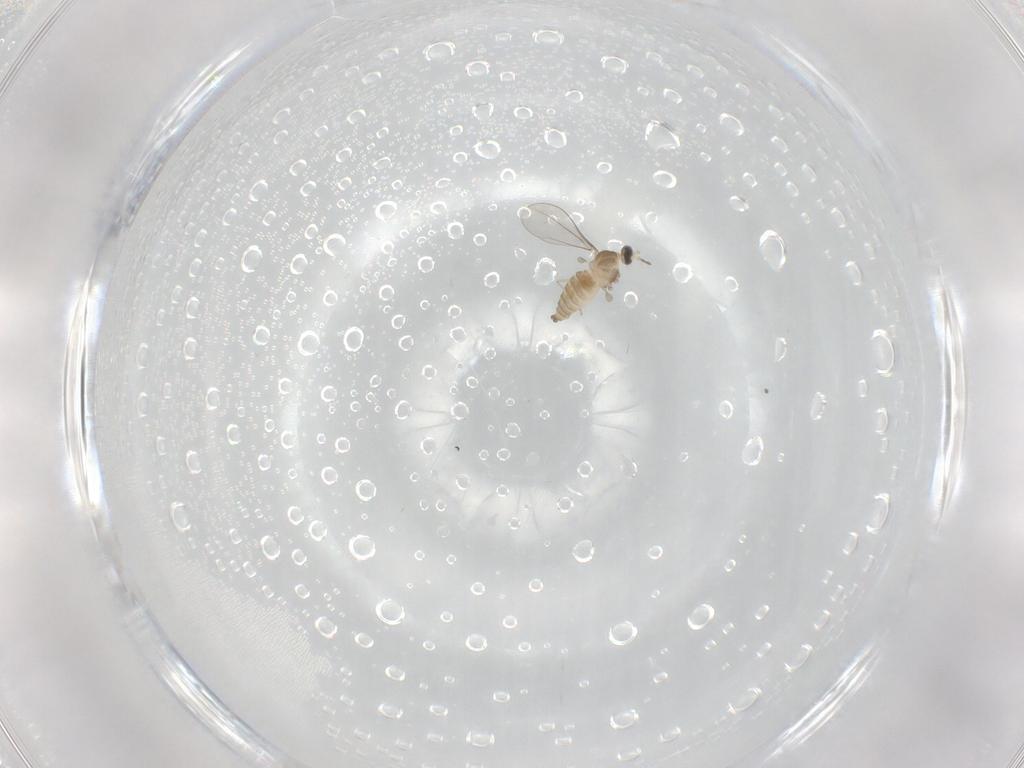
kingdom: Animalia
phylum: Arthropoda
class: Insecta
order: Diptera
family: Cecidomyiidae
